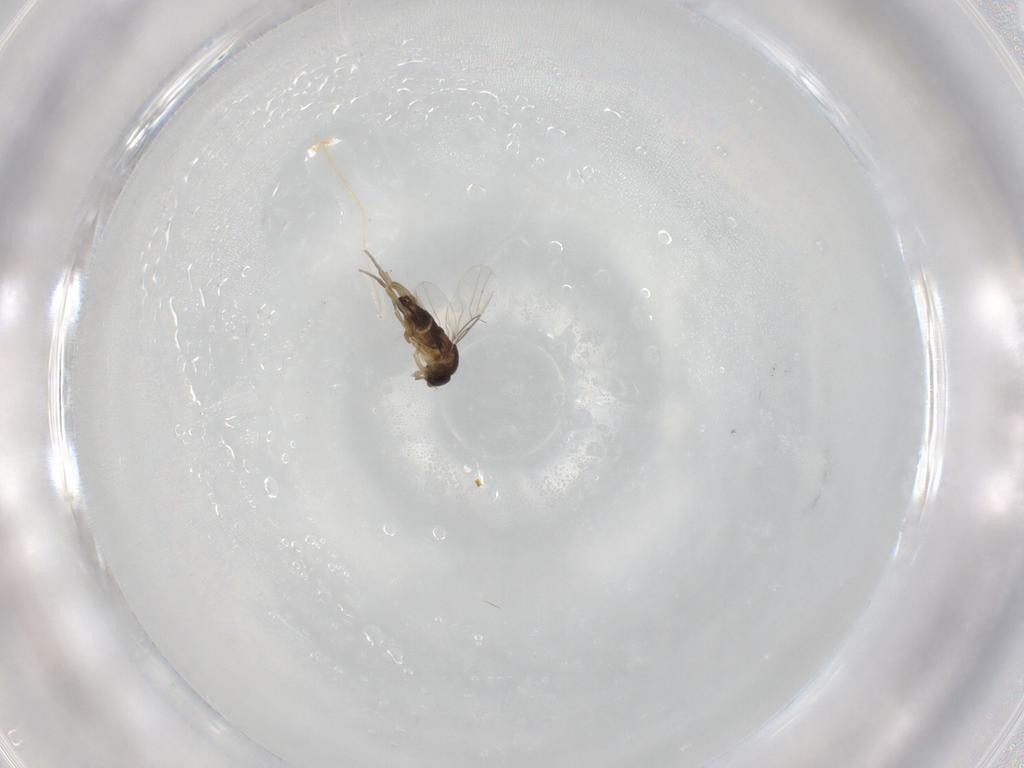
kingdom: Animalia
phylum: Arthropoda
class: Insecta
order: Diptera
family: Phoridae
